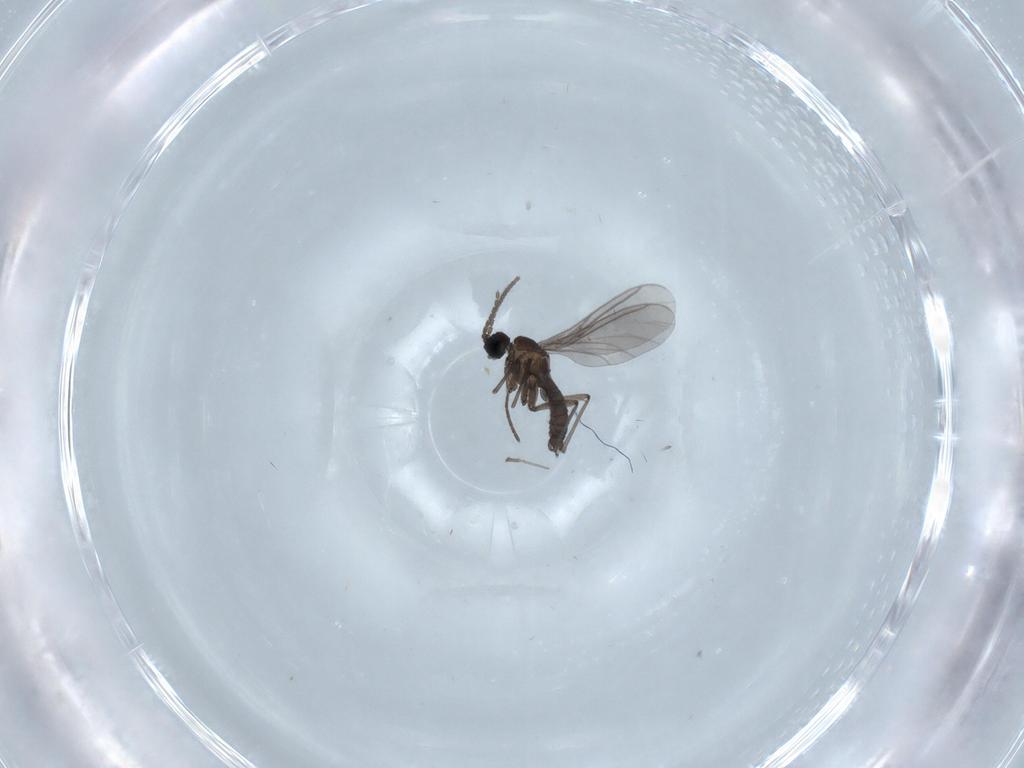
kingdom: Animalia
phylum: Arthropoda
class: Insecta
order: Diptera
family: Sciaridae
